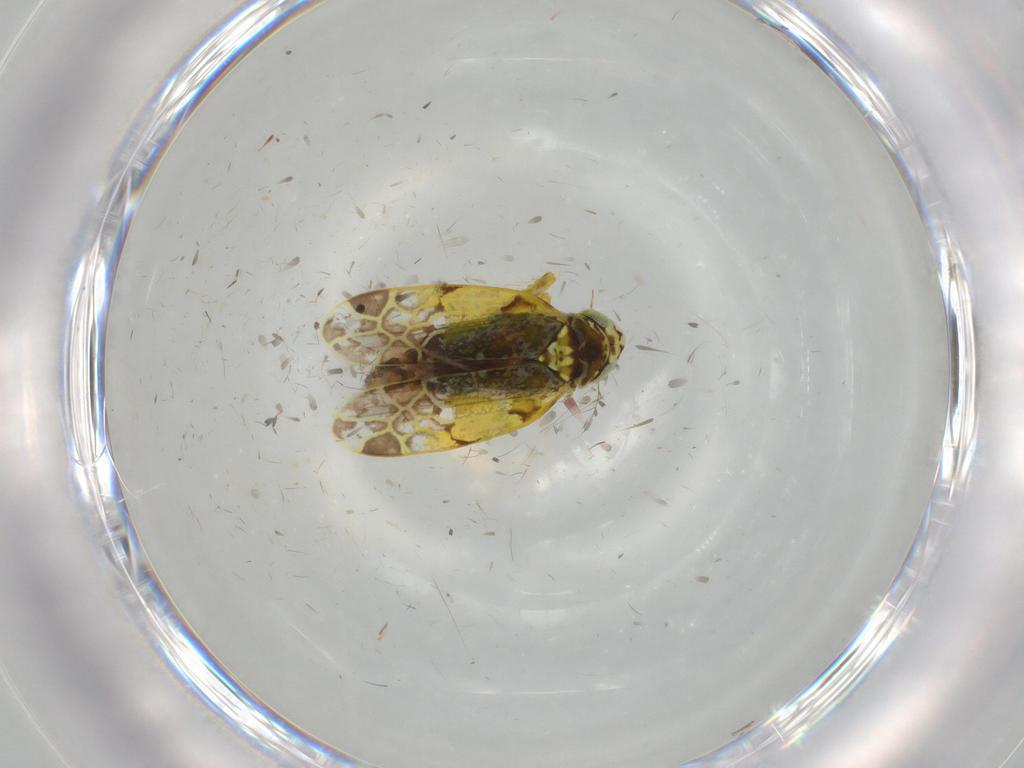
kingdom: Animalia
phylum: Arthropoda
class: Insecta
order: Hemiptera
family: Cicadellidae
